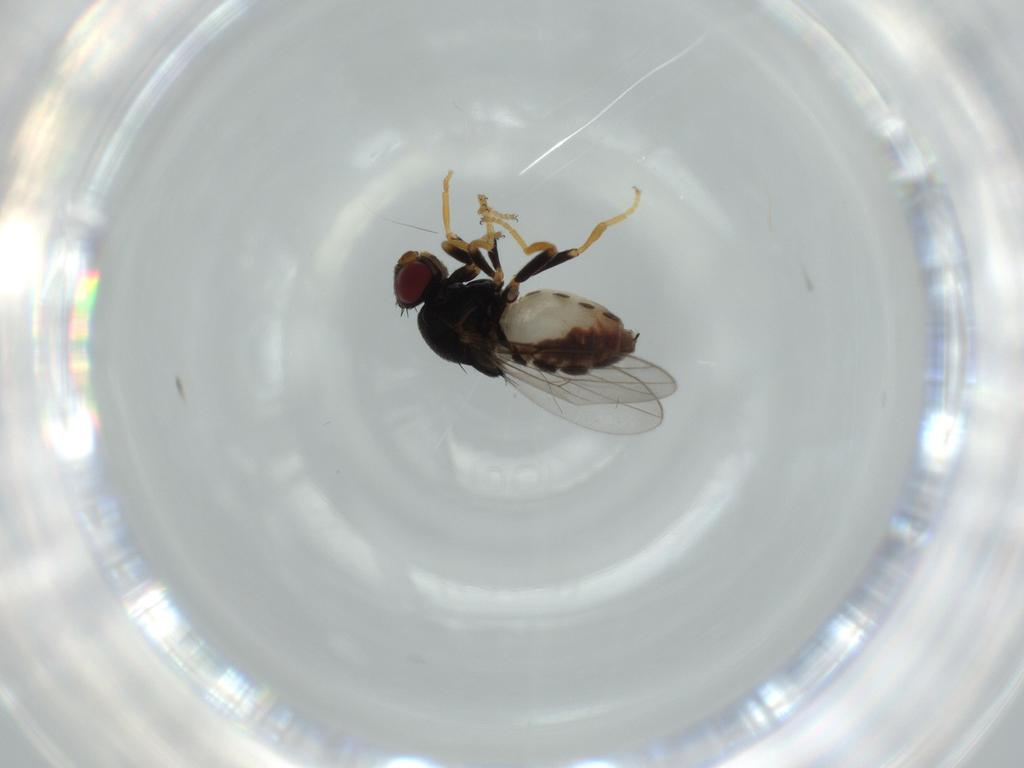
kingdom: Animalia
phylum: Arthropoda
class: Insecta
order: Diptera
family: Chloropidae
